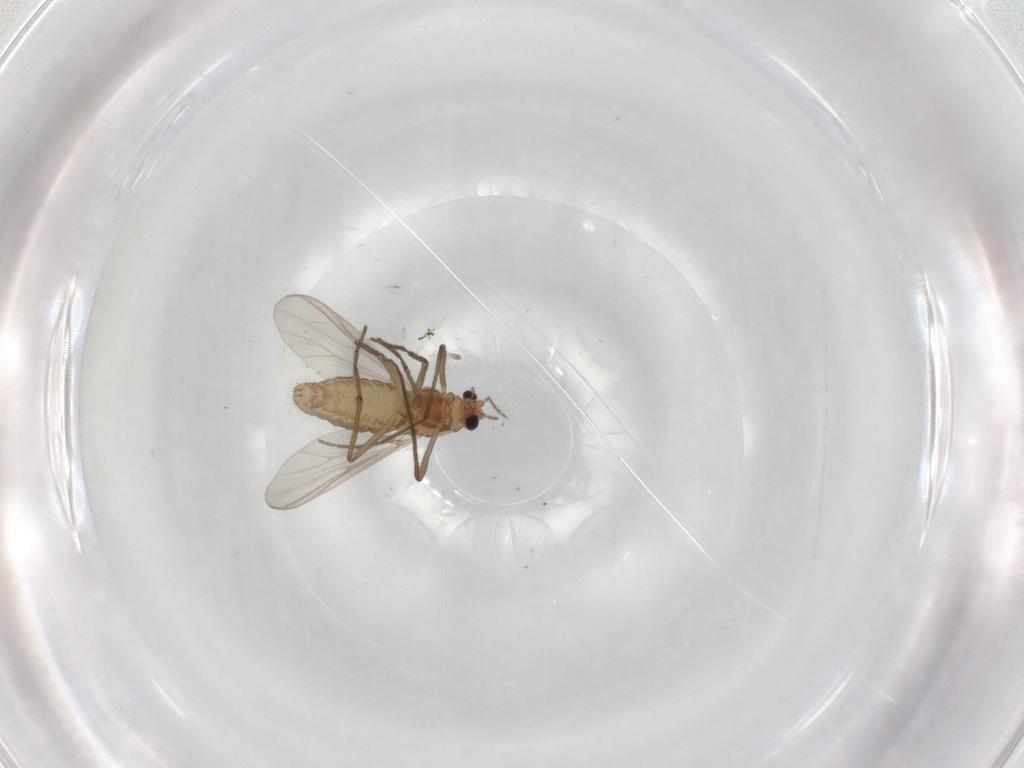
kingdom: Animalia
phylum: Arthropoda
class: Insecta
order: Diptera
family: Chironomidae
